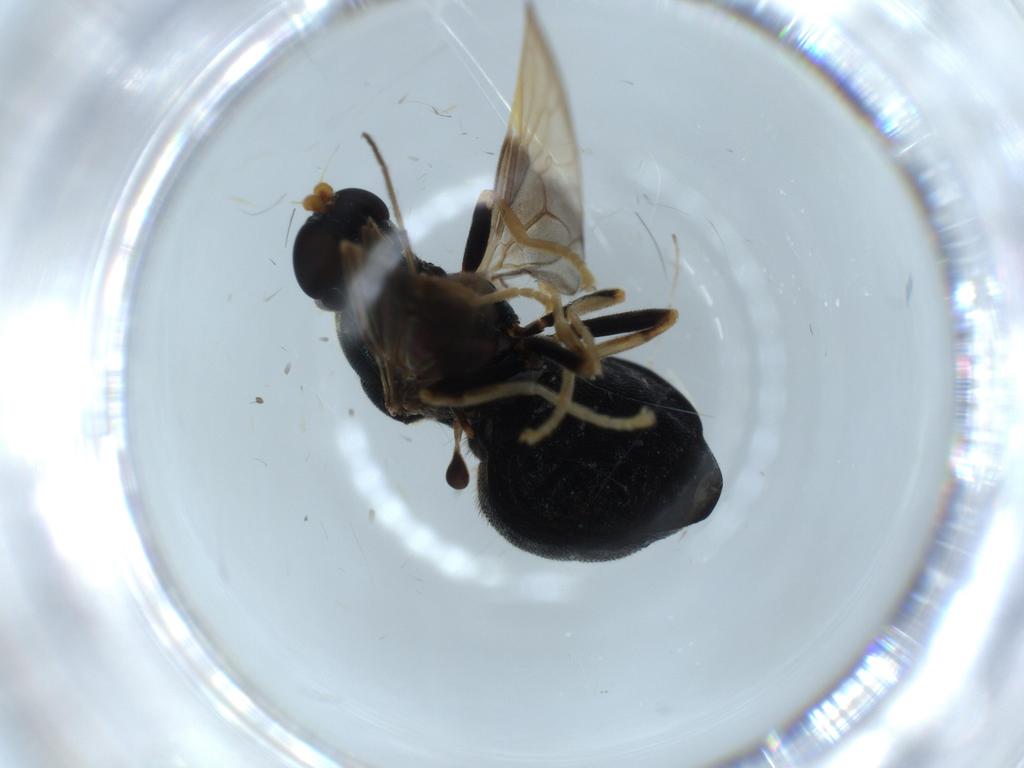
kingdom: Animalia
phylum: Arthropoda
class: Insecta
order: Diptera
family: Stratiomyidae
